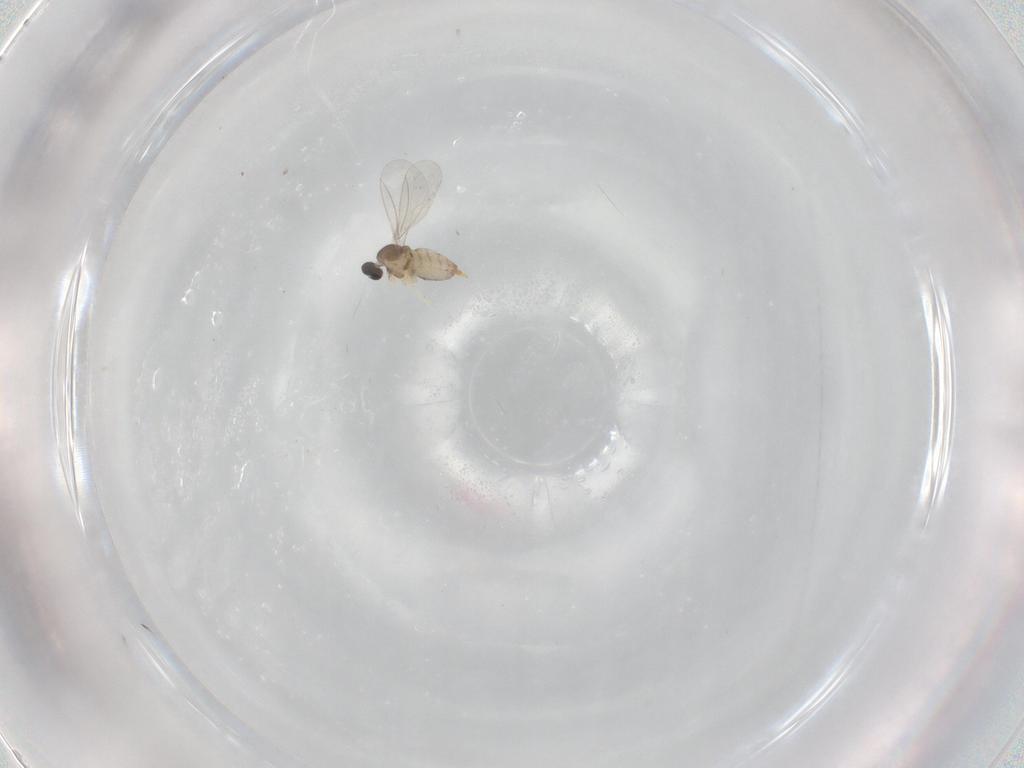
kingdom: Animalia
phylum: Arthropoda
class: Insecta
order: Diptera
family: Cecidomyiidae
